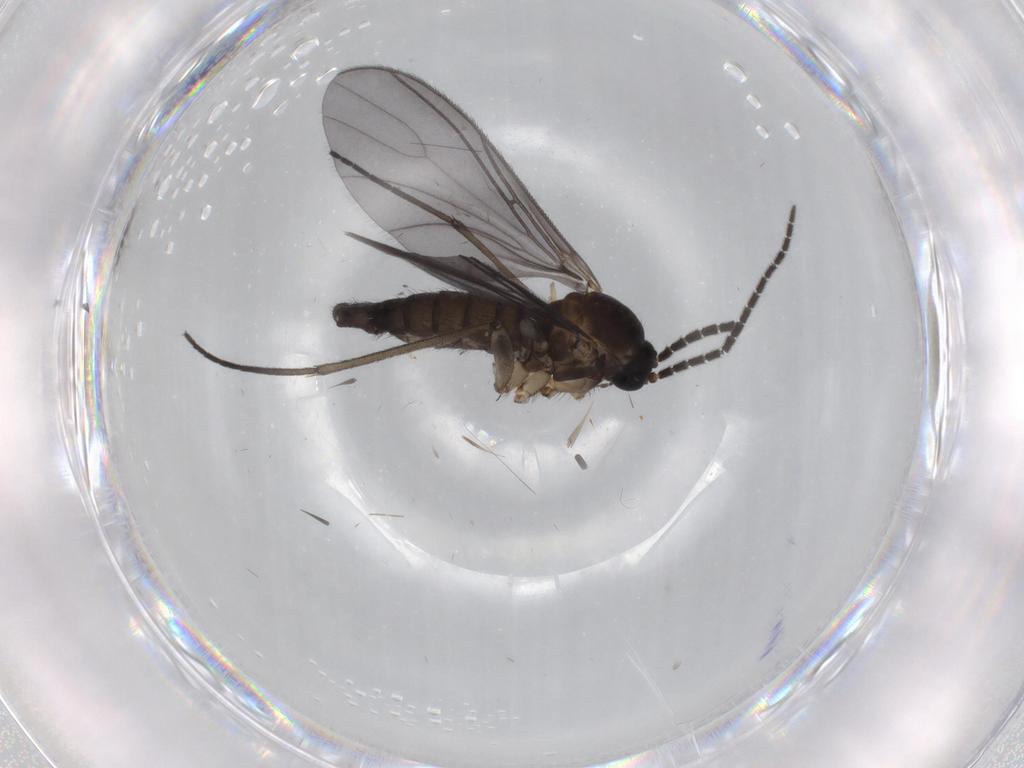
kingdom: Animalia
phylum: Arthropoda
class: Insecta
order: Diptera
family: Sciaridae
